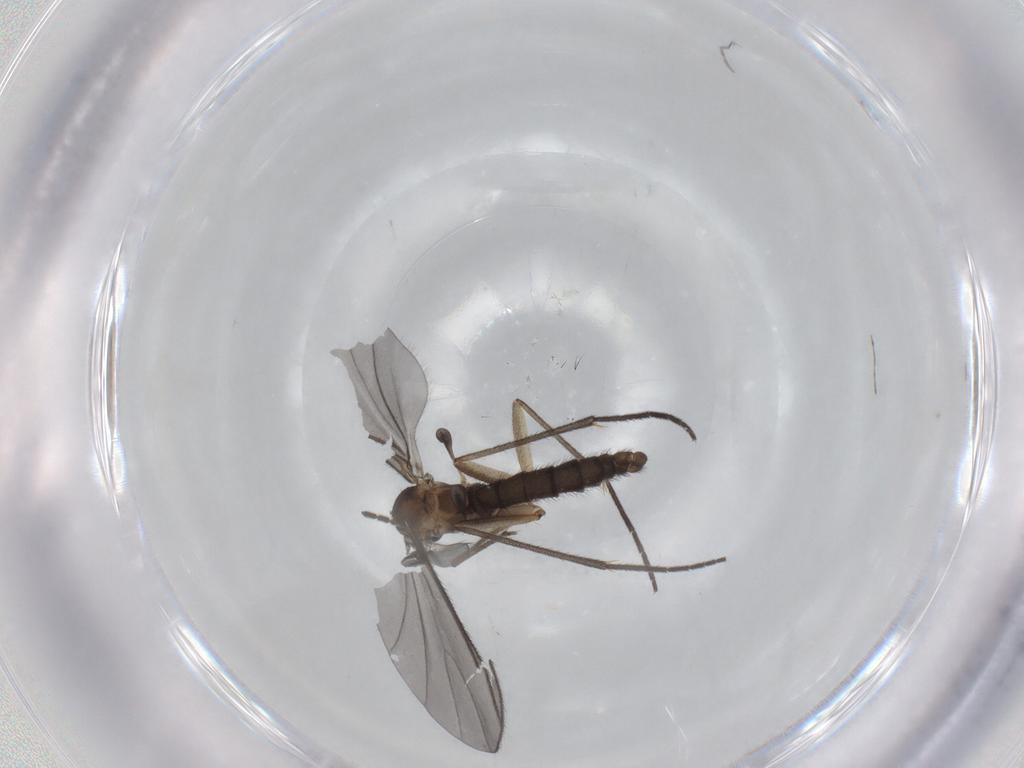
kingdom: Animalia
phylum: Arthropoda
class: Insecta
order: Diptera
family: Sciaridae
